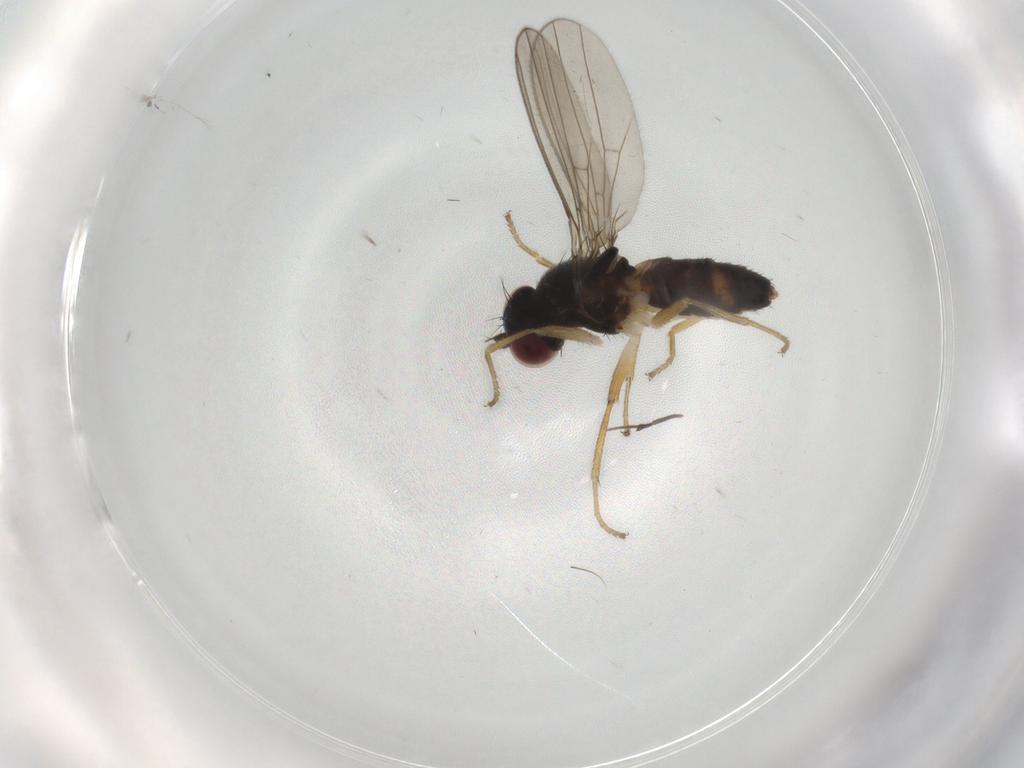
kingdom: Animalia
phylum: Arthropoda
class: Insecta
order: Diptera
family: Anthomyzidae
